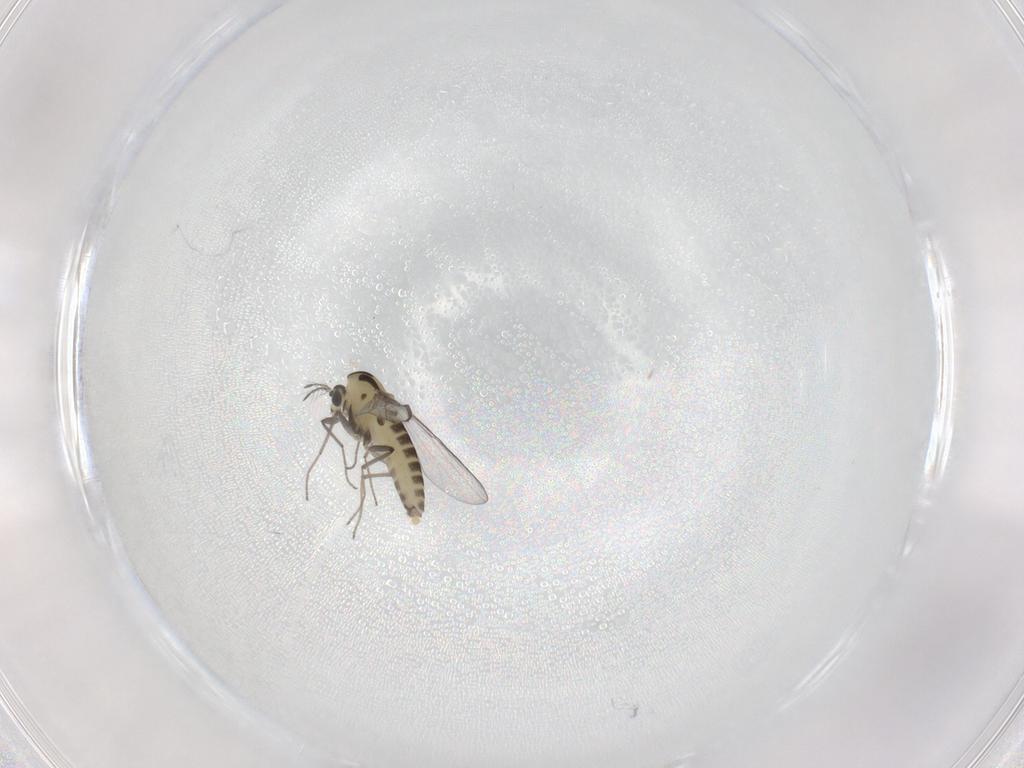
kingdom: Animalia
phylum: Arthropoda
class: Insecta
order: Diptera
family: Chironomidae
